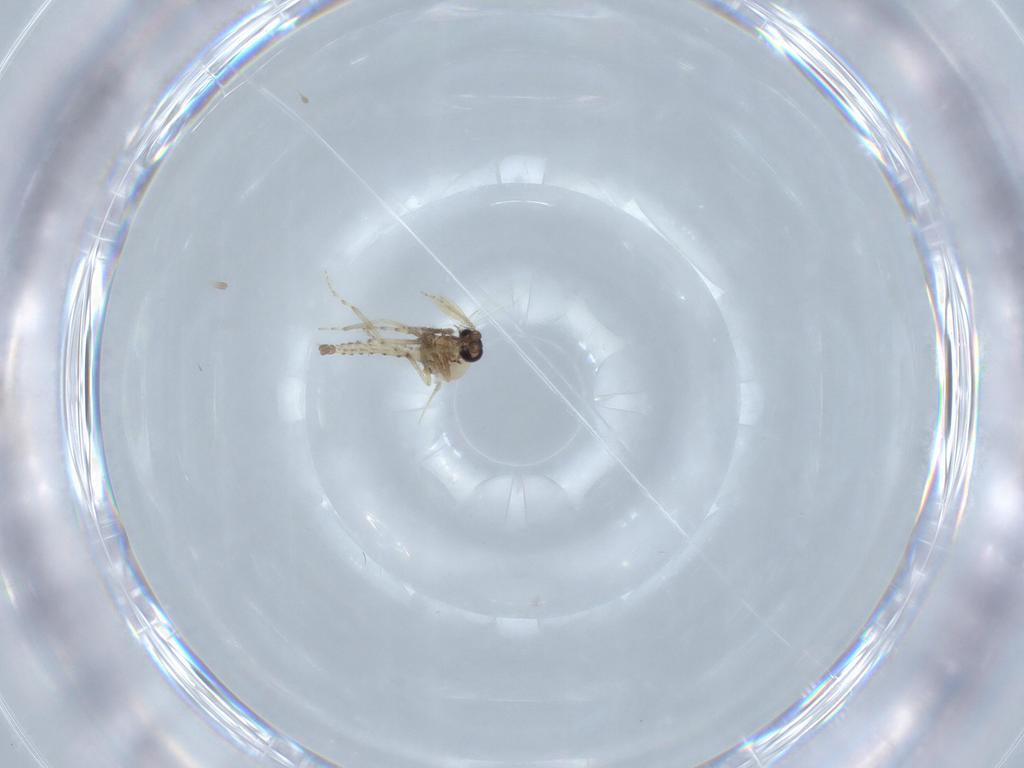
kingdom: Animalia
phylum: Arthropoda
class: Insecta
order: Diptera
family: Ceratopogonidae
